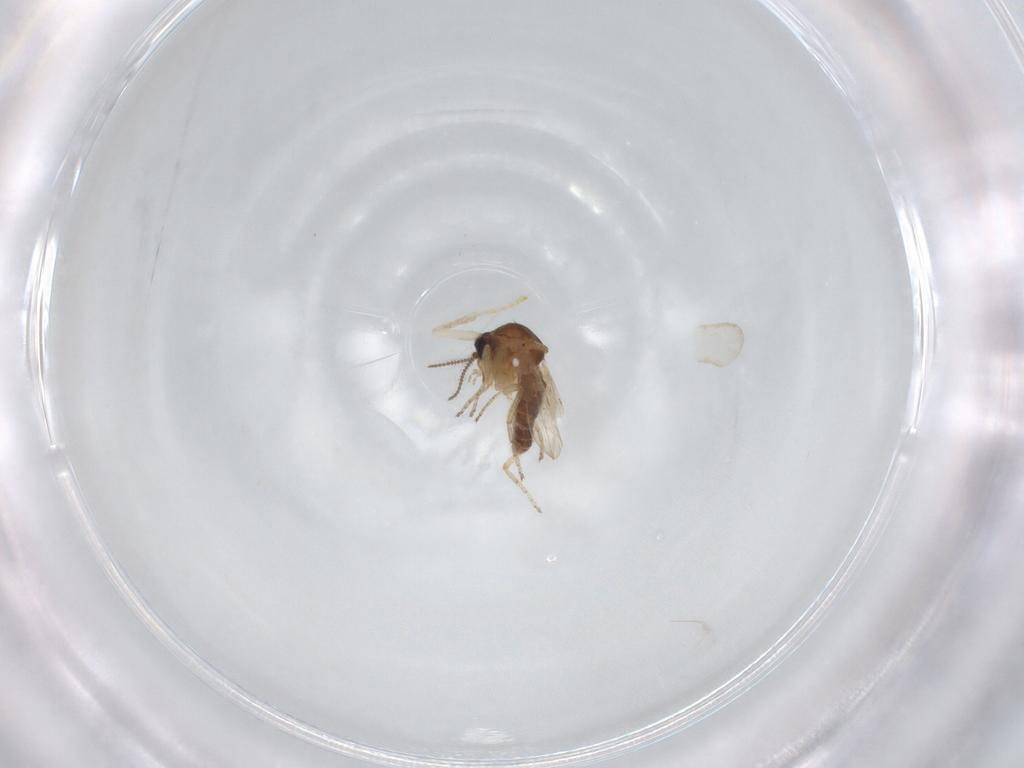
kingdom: Animalia
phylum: Arthropoda
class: Insecta
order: Diptera
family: Ceratopogonidae
